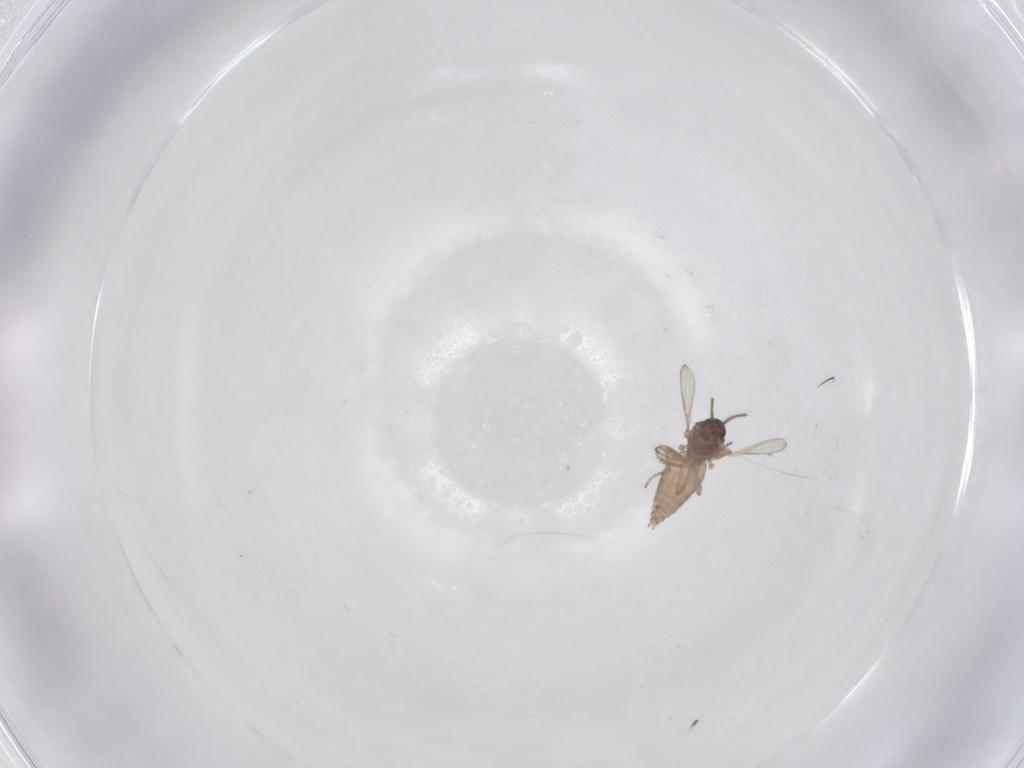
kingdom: Animalia
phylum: Arthropoda
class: Insecta
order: Diptera
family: Ceratopogonidae
